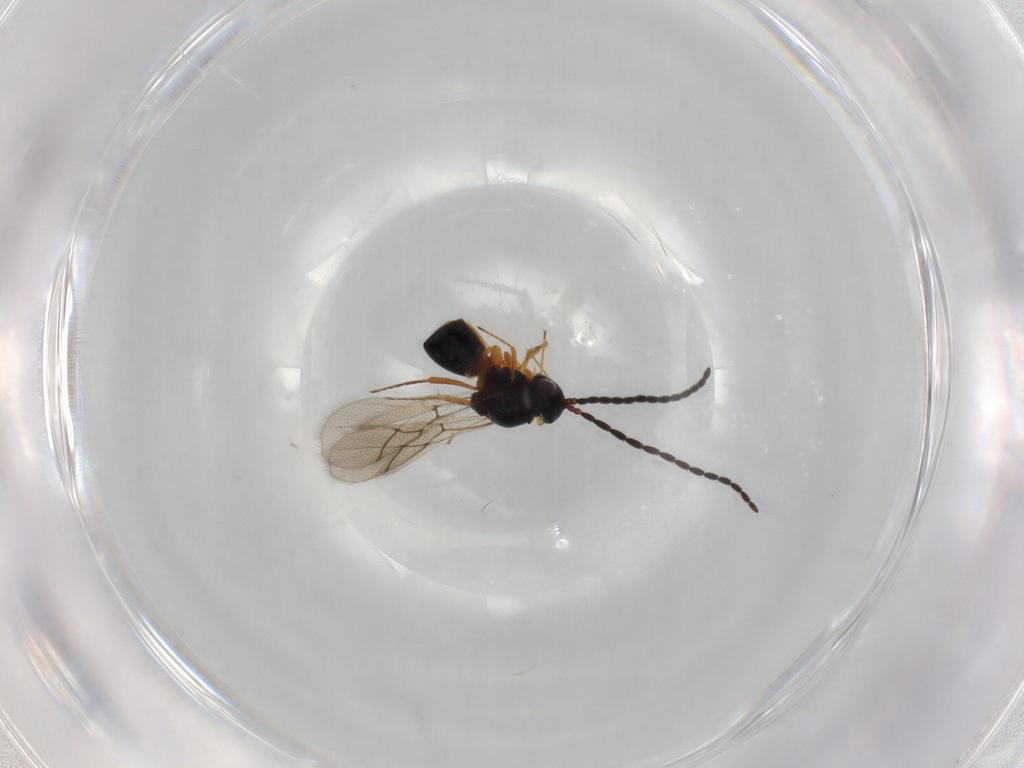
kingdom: Animalia
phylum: Arthropoda
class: Insecta
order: Hymenoptera
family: Figitidae
